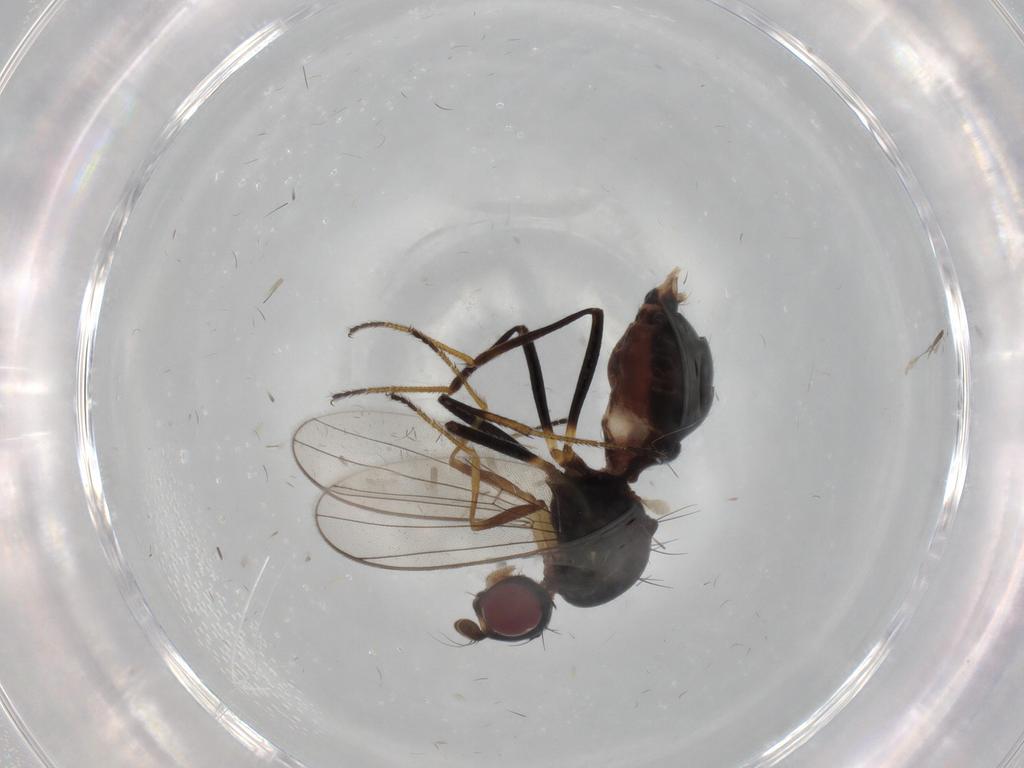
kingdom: Animalia
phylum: Arthropoda
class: Insecta
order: Diptera
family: Sepsidae
